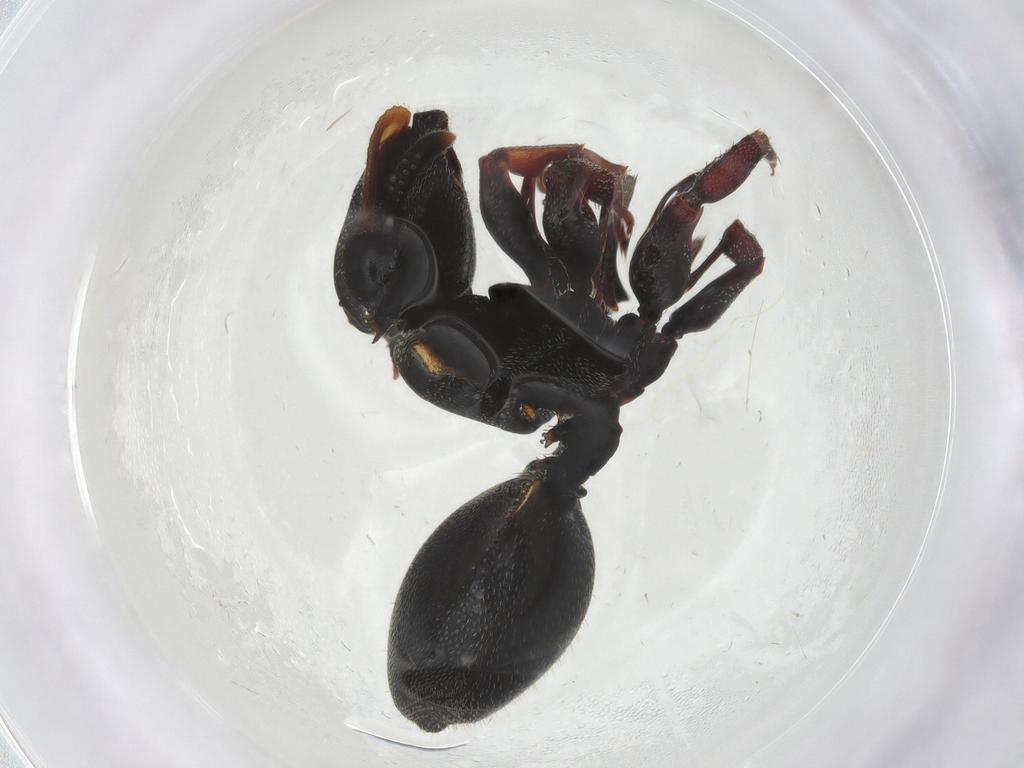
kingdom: Animalia
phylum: Arthropoda
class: Insecta
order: Hymenoptera
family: Formicidae
